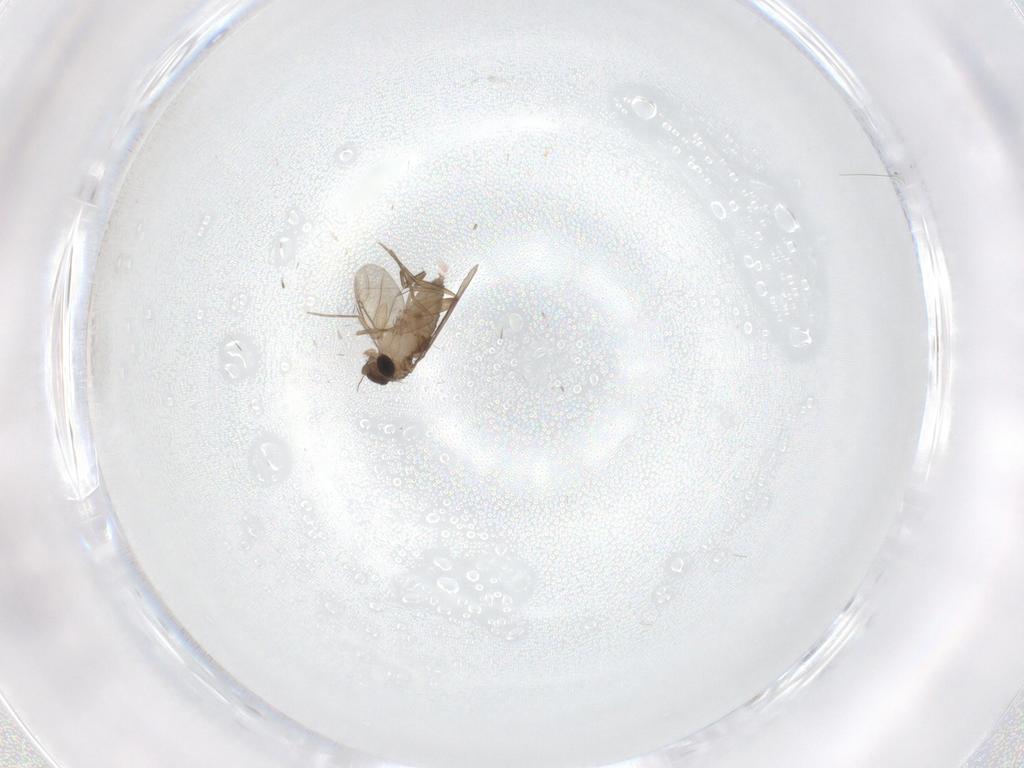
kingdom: Animalia
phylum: Arthropoda
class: Insecta
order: Diptera
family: Phoridae
